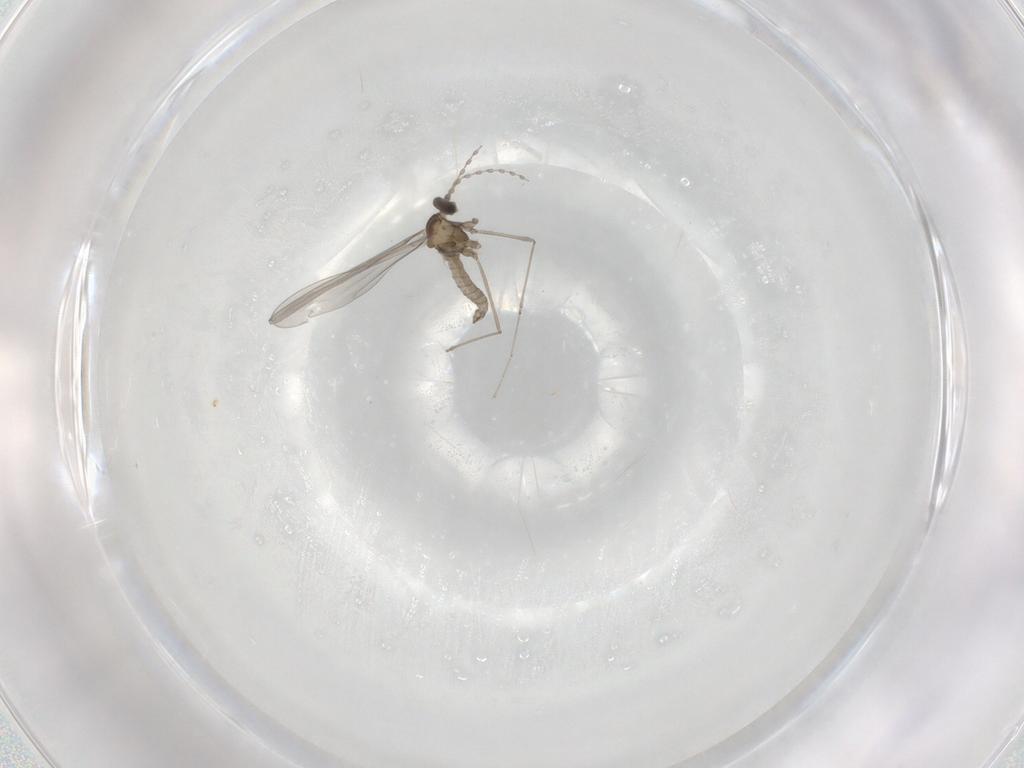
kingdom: Animalia
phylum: Arthropoda
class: Insecta
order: Diptera
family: Cecidomyiidae
